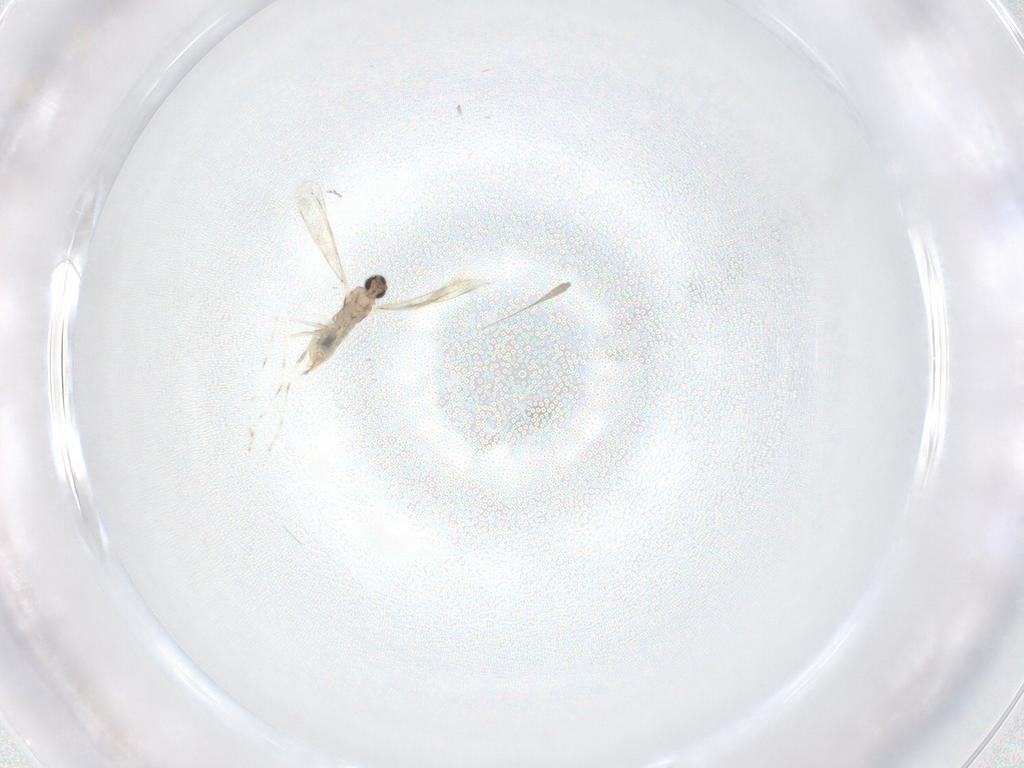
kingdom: Animalia
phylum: Arthropoda
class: Insecta
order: Diptera
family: Cecidomyiidae
